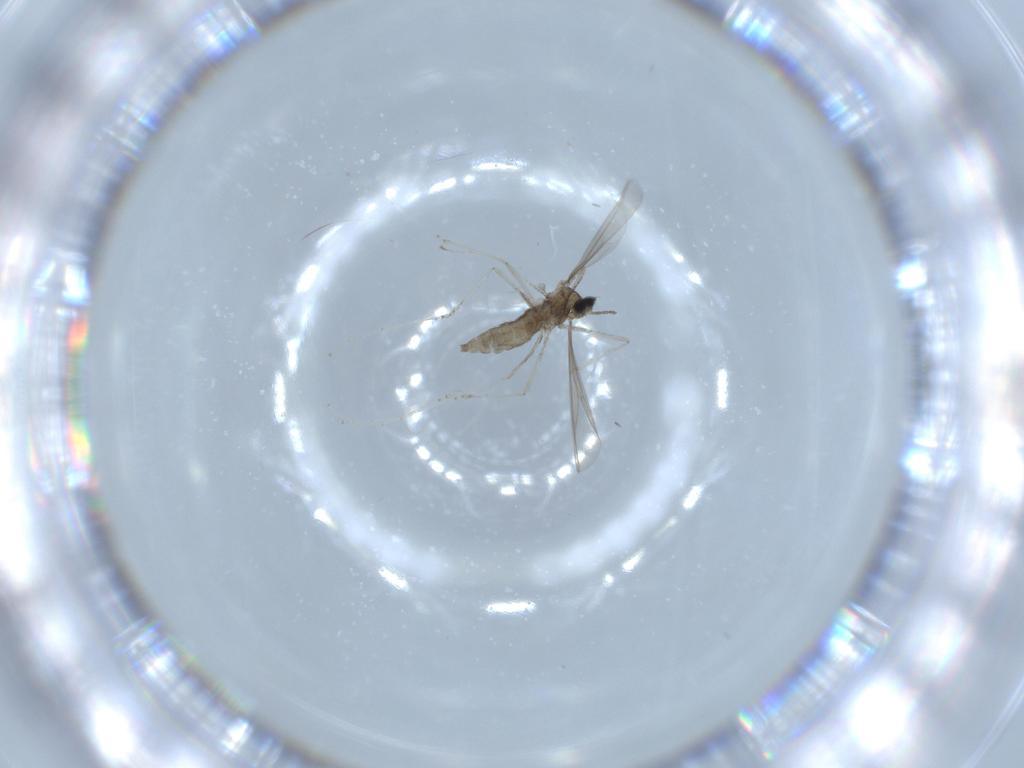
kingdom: Animalia
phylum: Arthropoda
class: Insecta
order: Diptera
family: Cecidomyiidae
